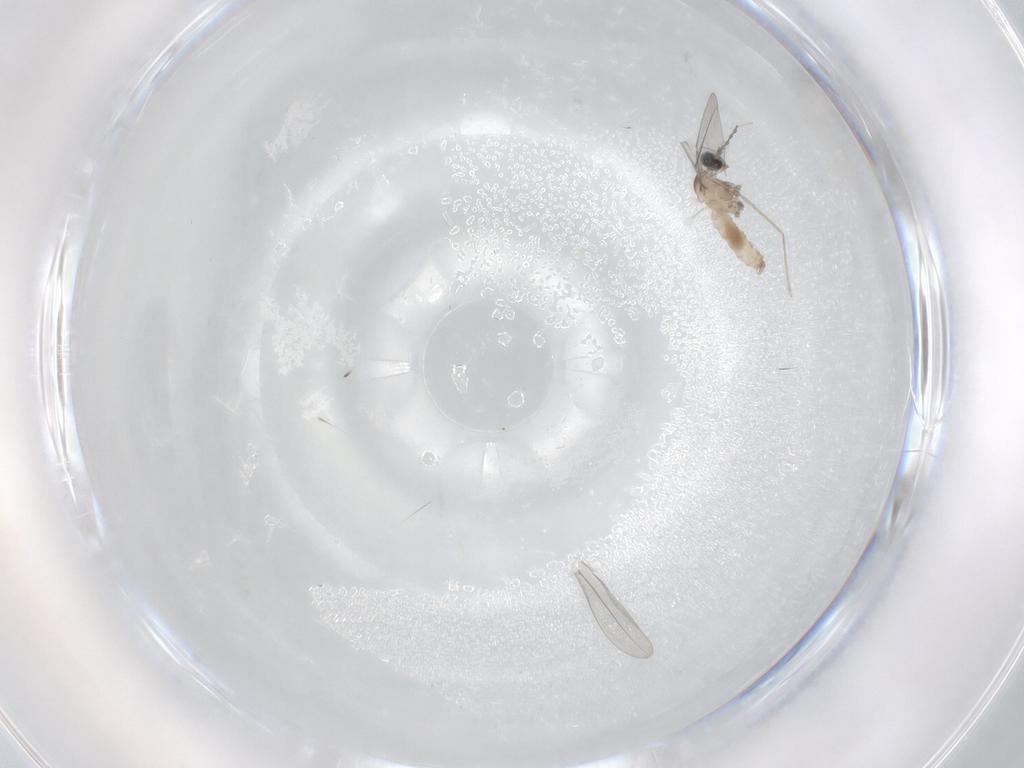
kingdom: Animalia
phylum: Arthropoda
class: Insecta
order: Diptera
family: Cecidomyiidae
